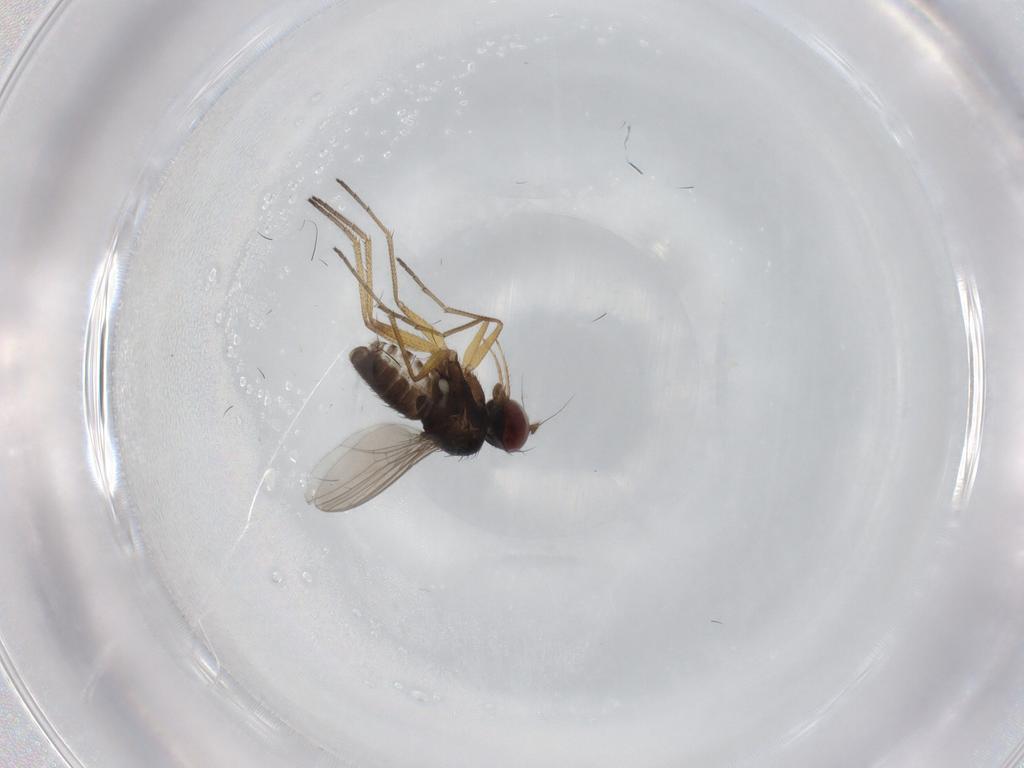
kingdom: Animalia
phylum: Arthropoda
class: Insecta
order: Diptera
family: Dolichopodidae
